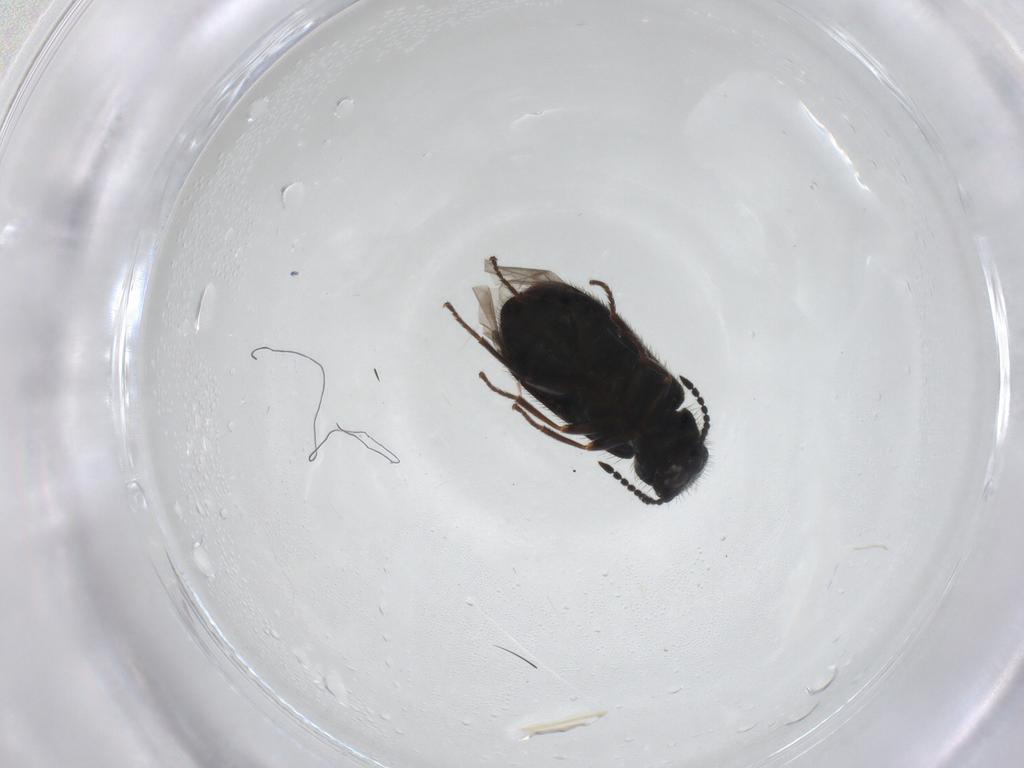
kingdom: Animalia
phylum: Arthropoda
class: Insecta
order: Coleoptera
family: Melyridae
